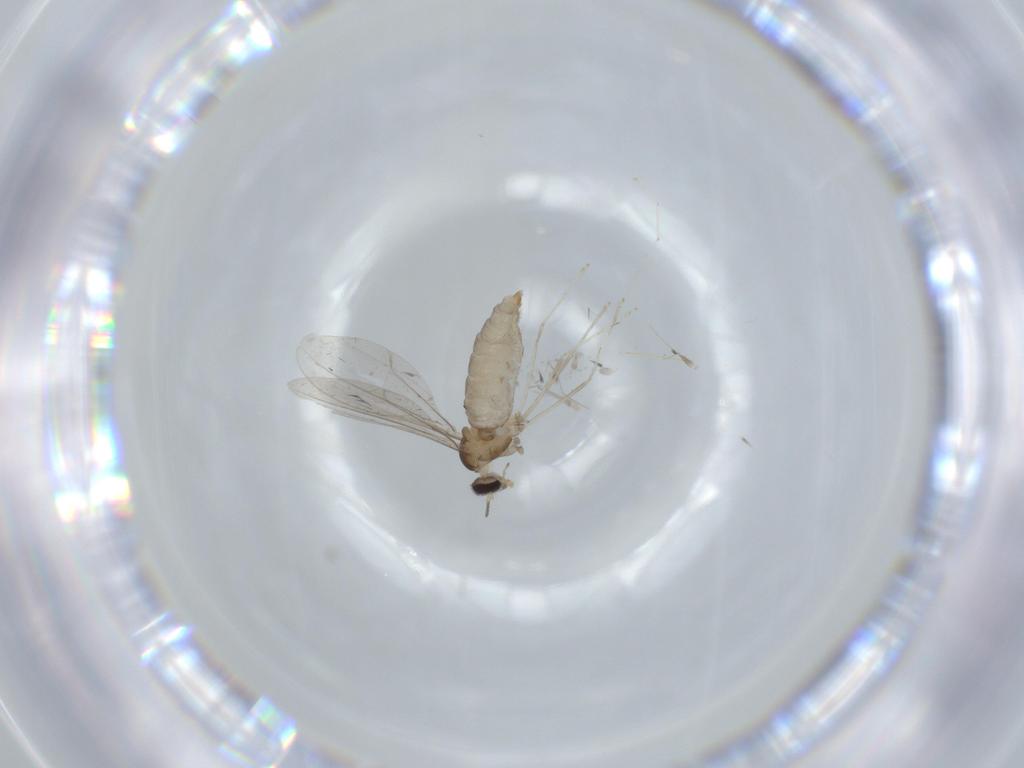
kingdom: Animalia
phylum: Arthropoda
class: Insecta
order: Diptera
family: Cecidomyiidae
